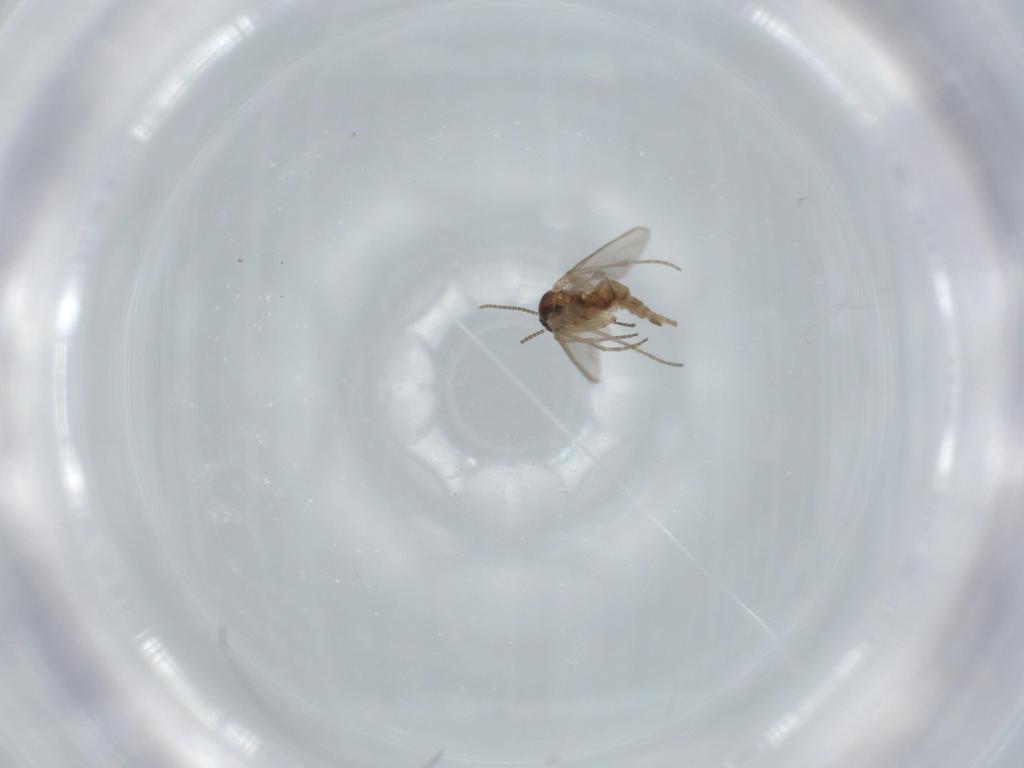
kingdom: Animalia
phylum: Arthropoda
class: Insecta
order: Diptera
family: Sciaridae
